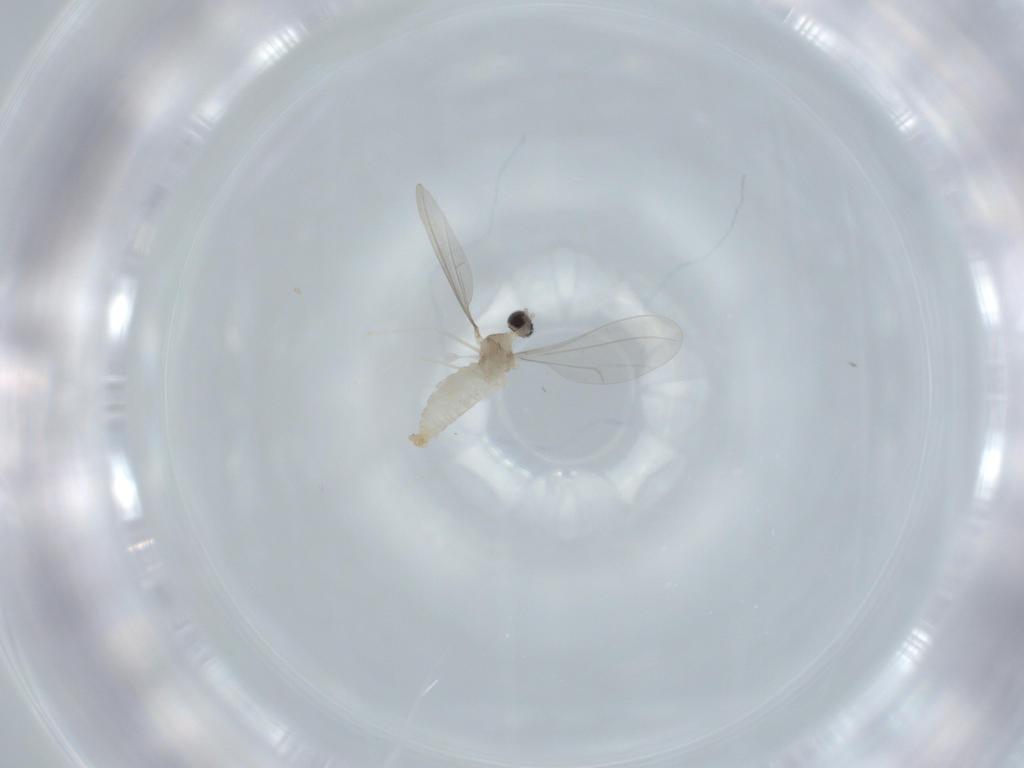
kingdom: Animalia
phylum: Arthropoda
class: Insecta
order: Diptera
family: Cecidomyiidae
